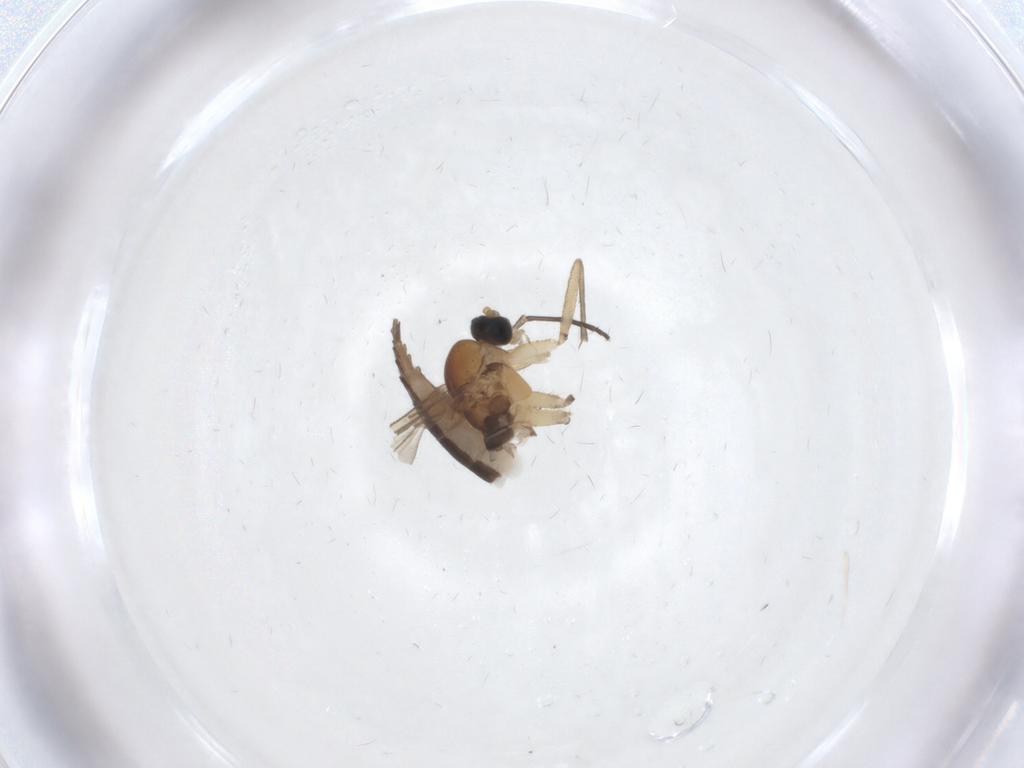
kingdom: Animalia
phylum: Arthropoda
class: Insecta
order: Diptera
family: Sciaridae
